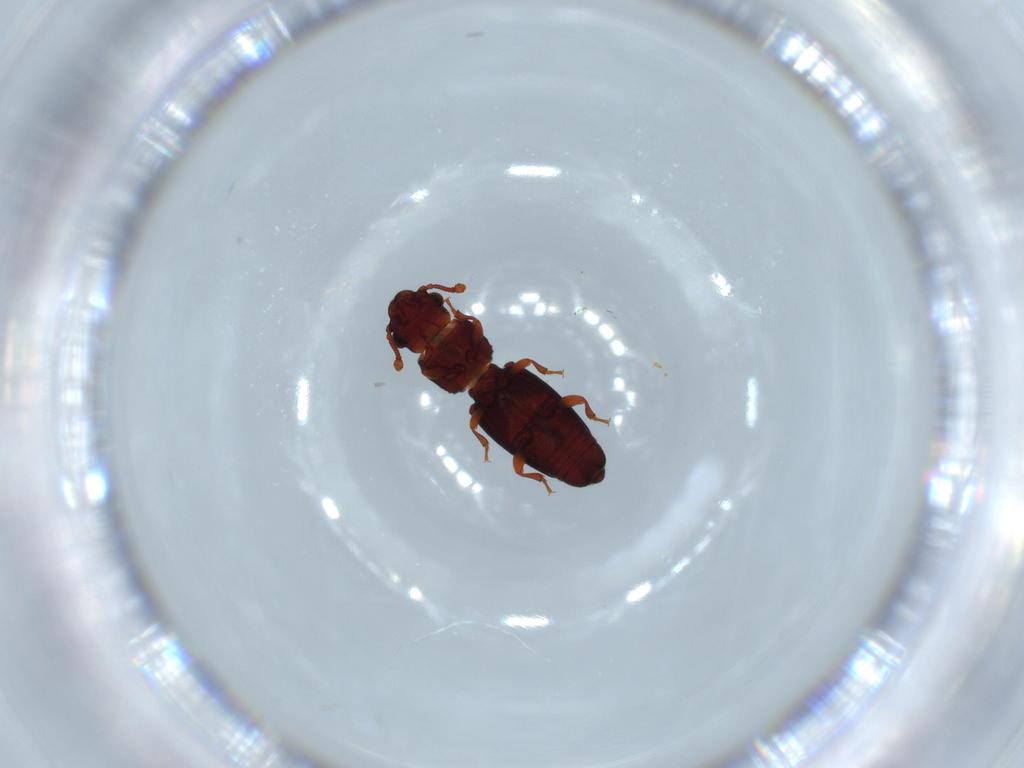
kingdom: Animalia
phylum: Arthropoda
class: Insecta
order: Coleoptera
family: Monotomidae
